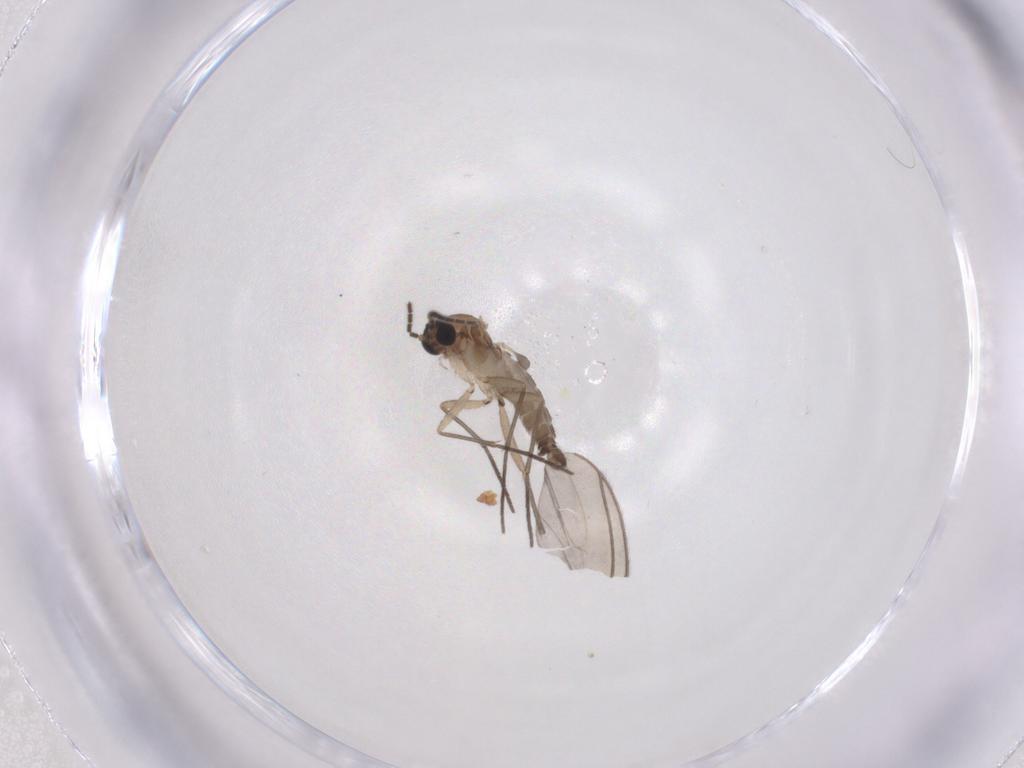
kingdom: Animalia
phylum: Arthropoda
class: Insecta
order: Diptera
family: Sciaridae
